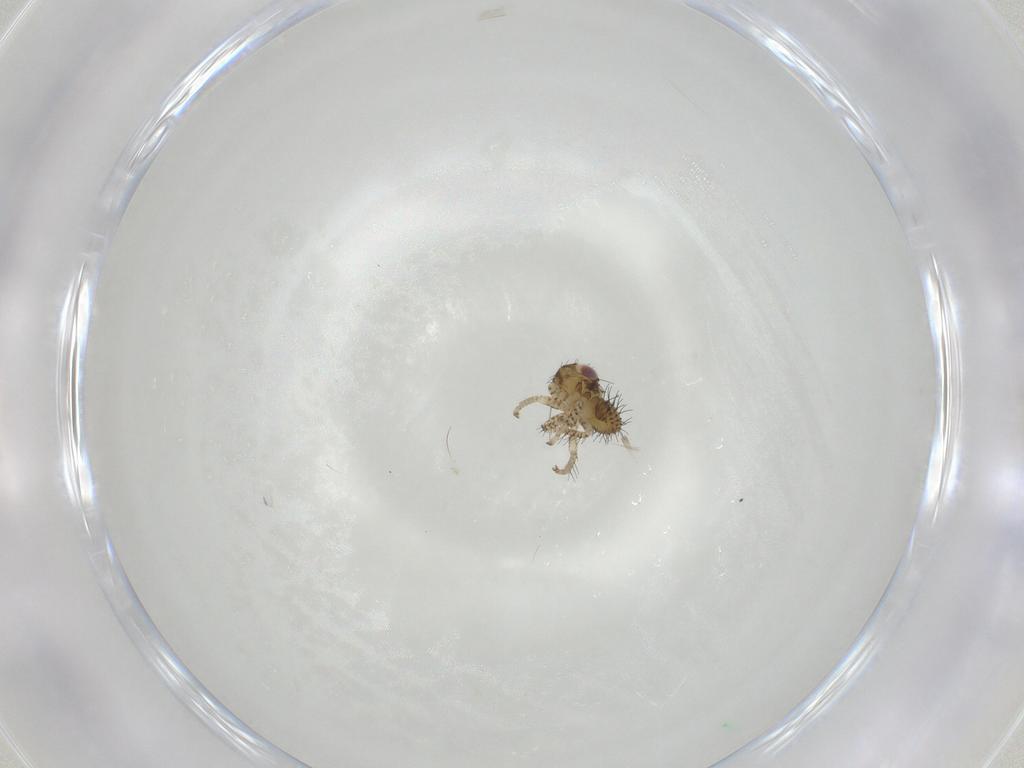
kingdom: Animalia
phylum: Arthropoda
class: Insecta
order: Hemiptera
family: Cicadellidae
